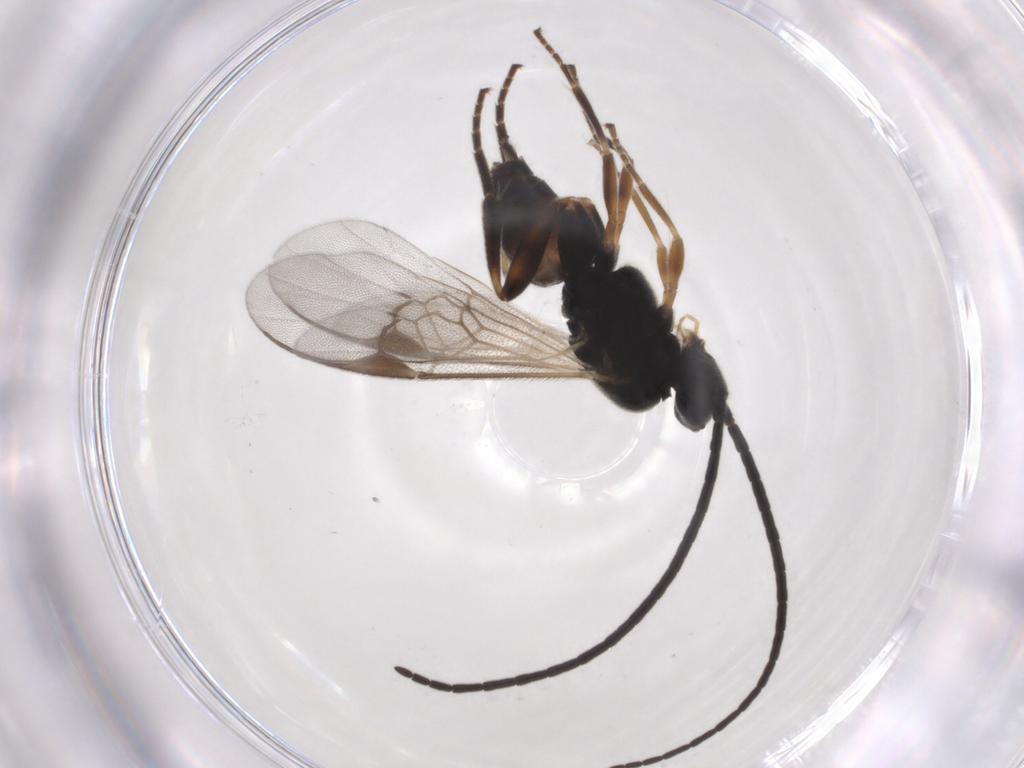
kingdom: Animalia
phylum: Arthropoda
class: Insecta
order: Hymenoptera
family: Braconidae
